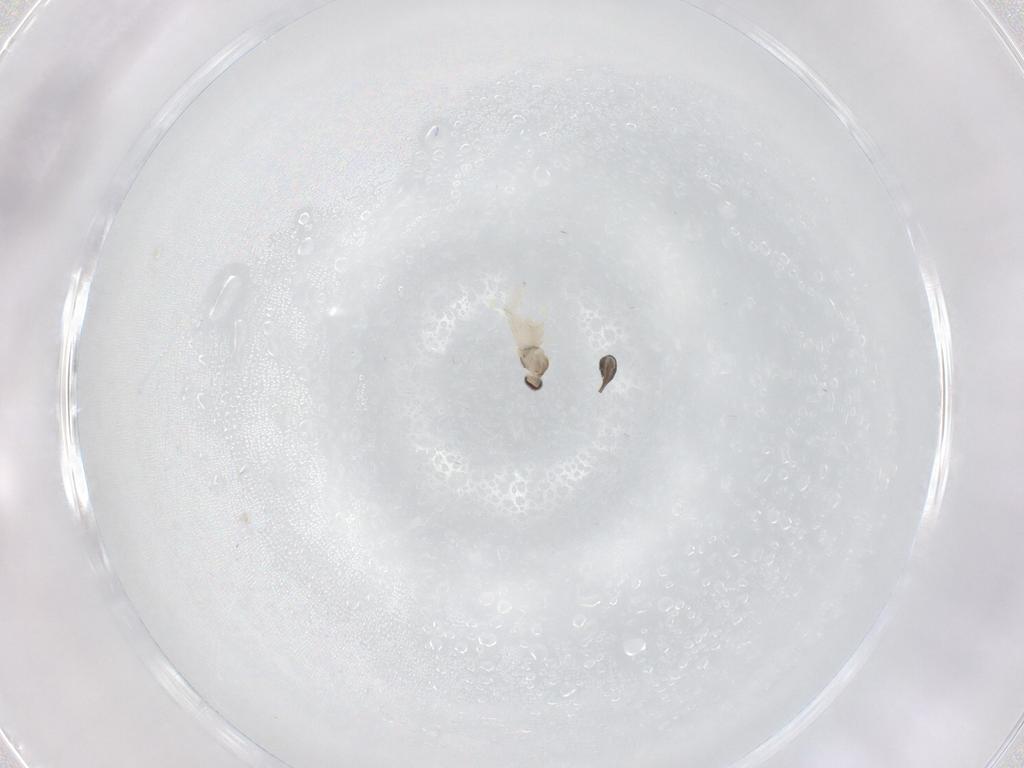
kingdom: Animalia
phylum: Arthropoda
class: Insecta
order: Diptera
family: Cecidomyiidae
